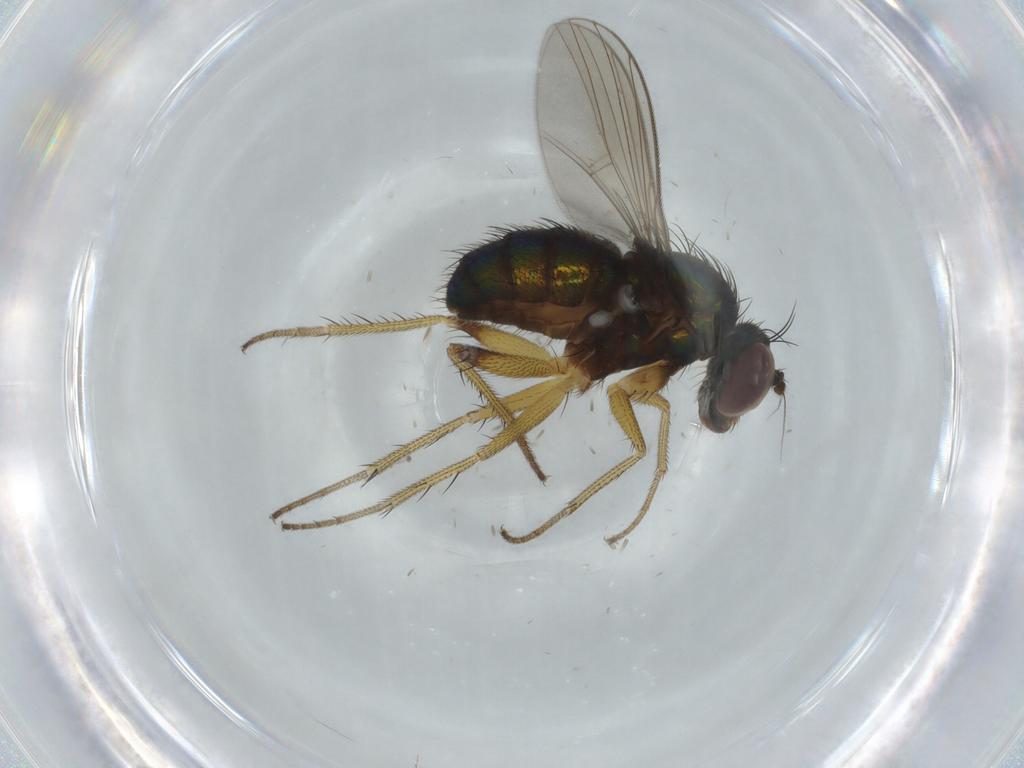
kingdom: Animalia
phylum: Arthropoda
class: Insecta
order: Diptera
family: Dolichopodidae
